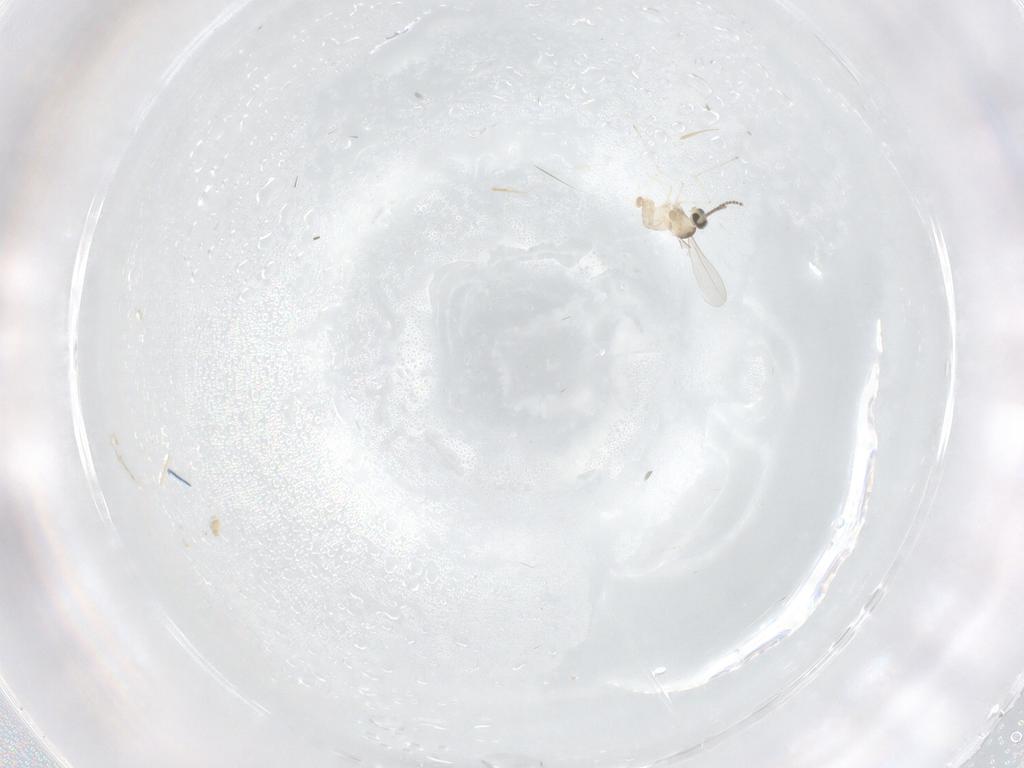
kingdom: Animalia
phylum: Arthropoda
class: Insecta
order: Diptera
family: Cecidomyiidae
